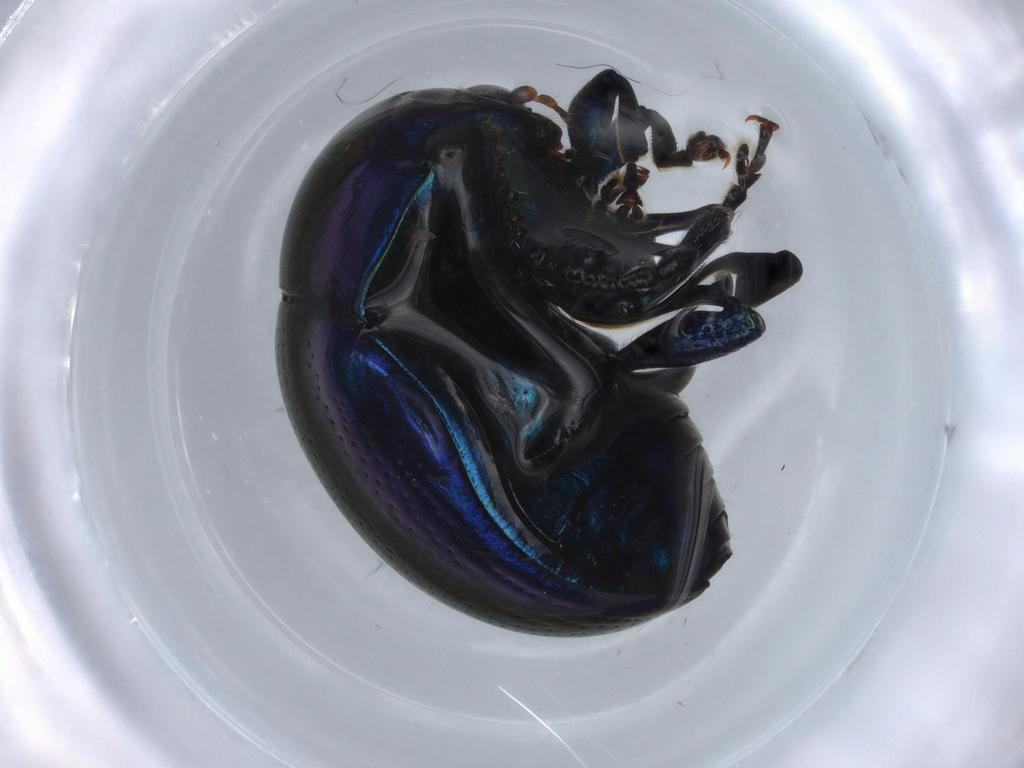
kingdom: Animalia
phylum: Arthropoda
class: Insecta
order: Coleoptera
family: Chrysomelidae
